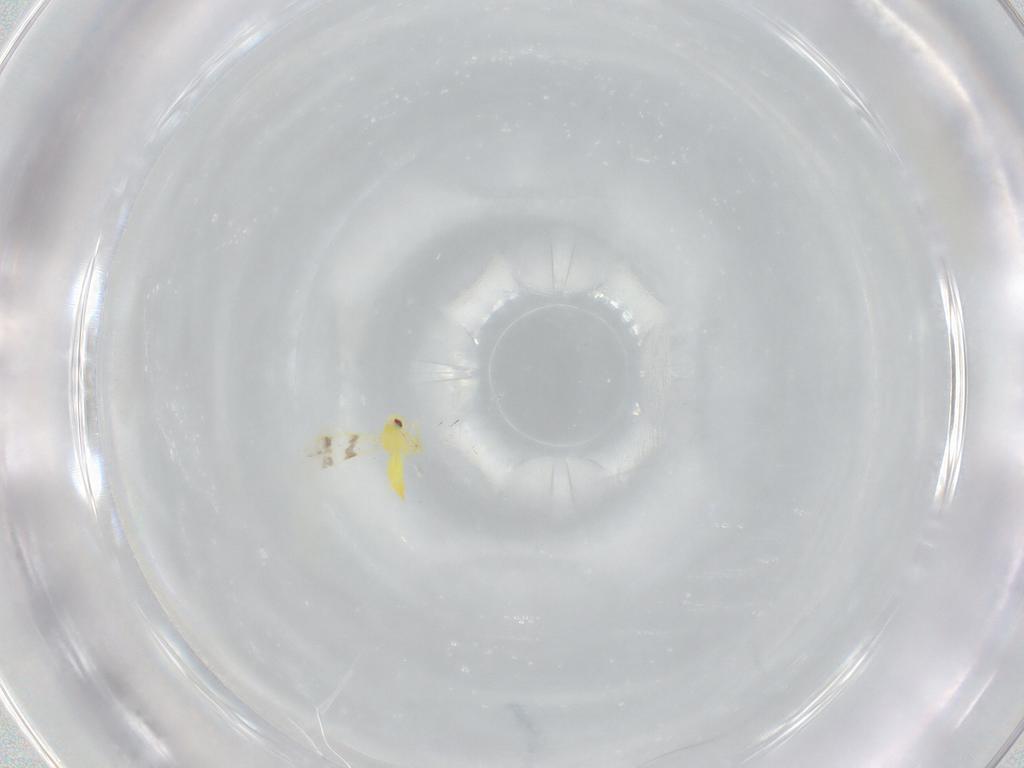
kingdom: Animalia
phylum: Arthropoda
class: Insecta
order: Hemiptera
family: Aleyrodidae
